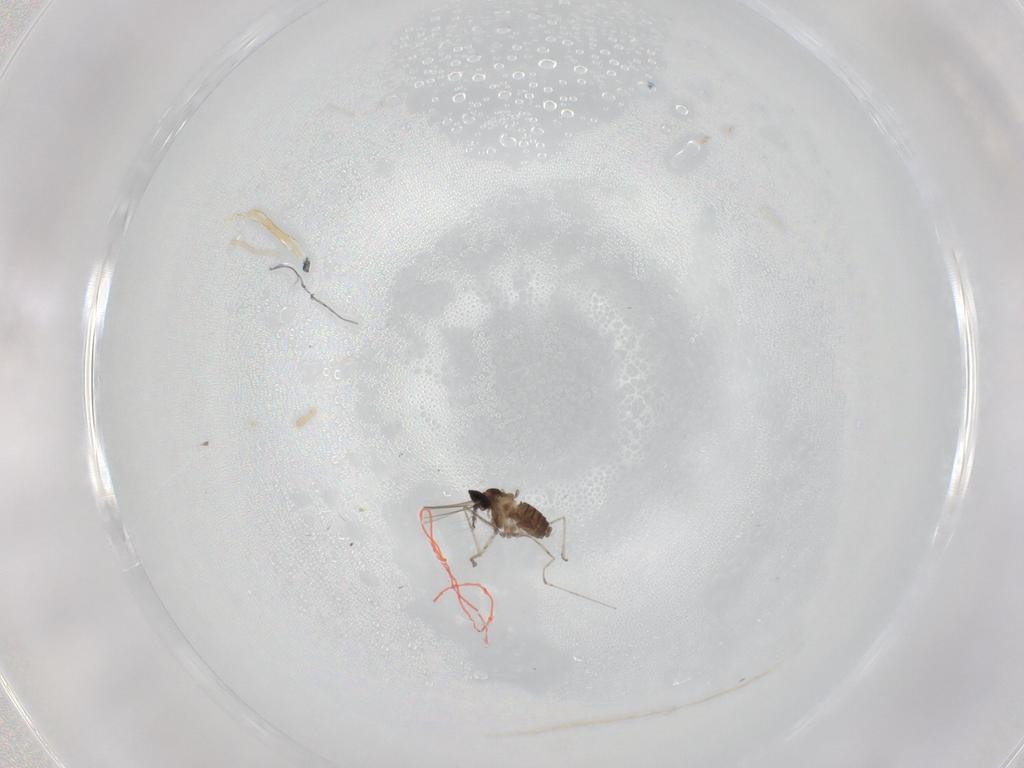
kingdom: Animalia
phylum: Arthropoda
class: Insecta
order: Diptera
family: Cecidomyiidae
